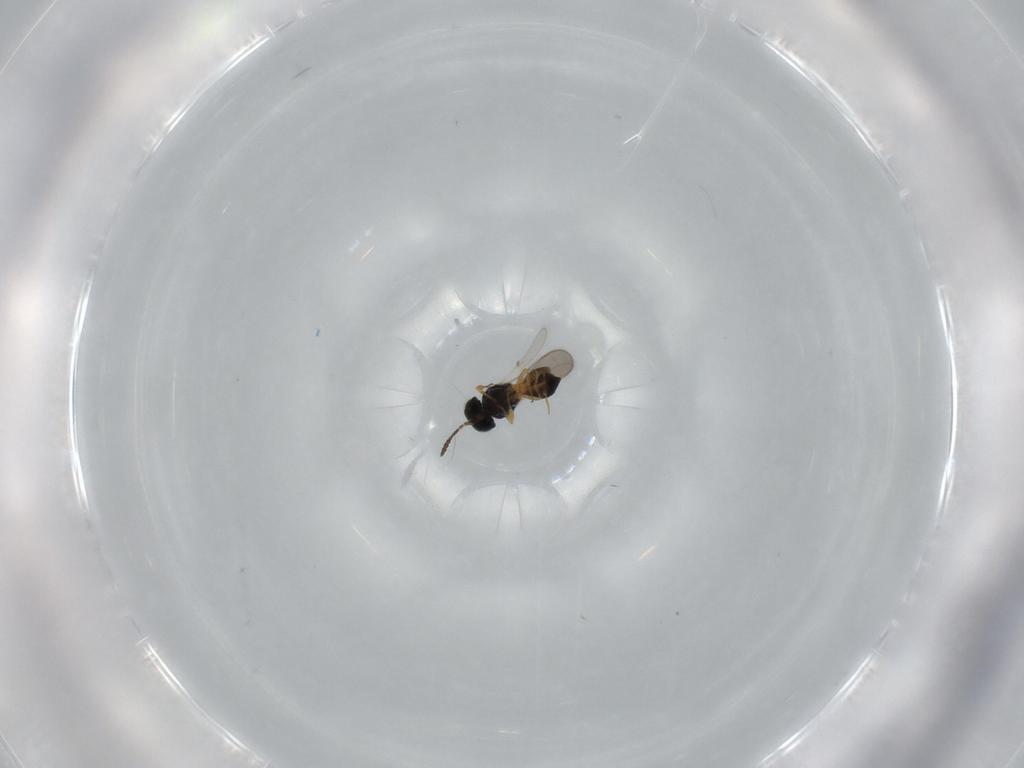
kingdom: Animalia
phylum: Arthropoda
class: Insecta
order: Hymenoptera
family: Scelionidae
